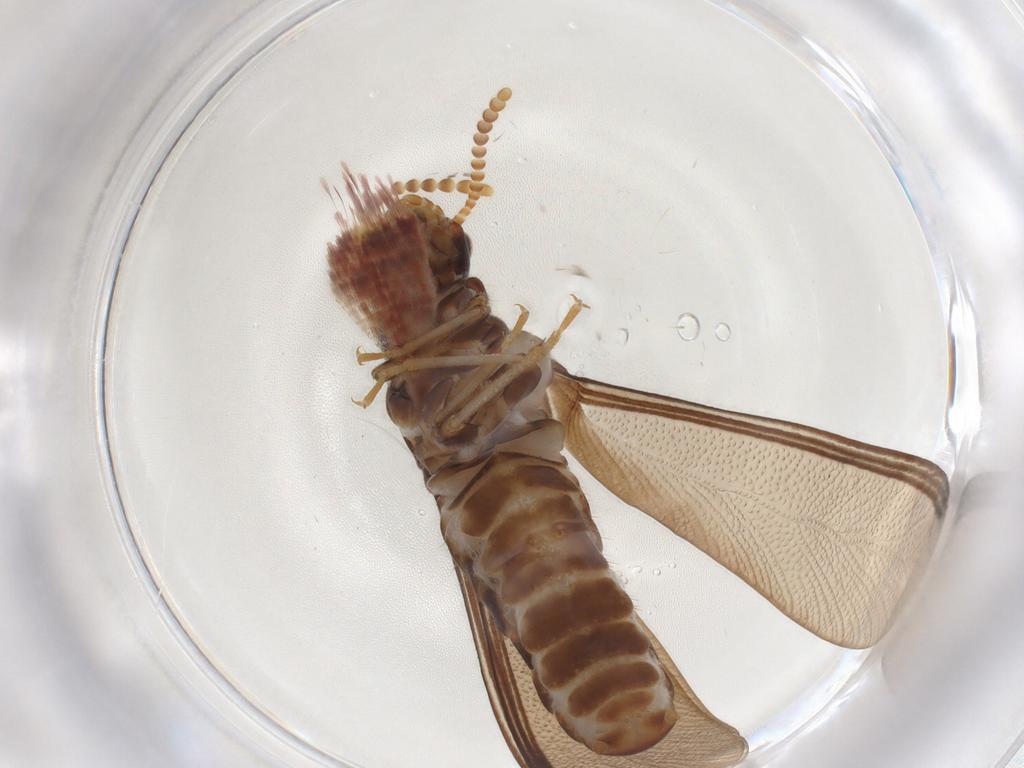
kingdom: Animalia
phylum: Arthropoda
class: Insecta
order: Lepidoptera
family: Geometridae
